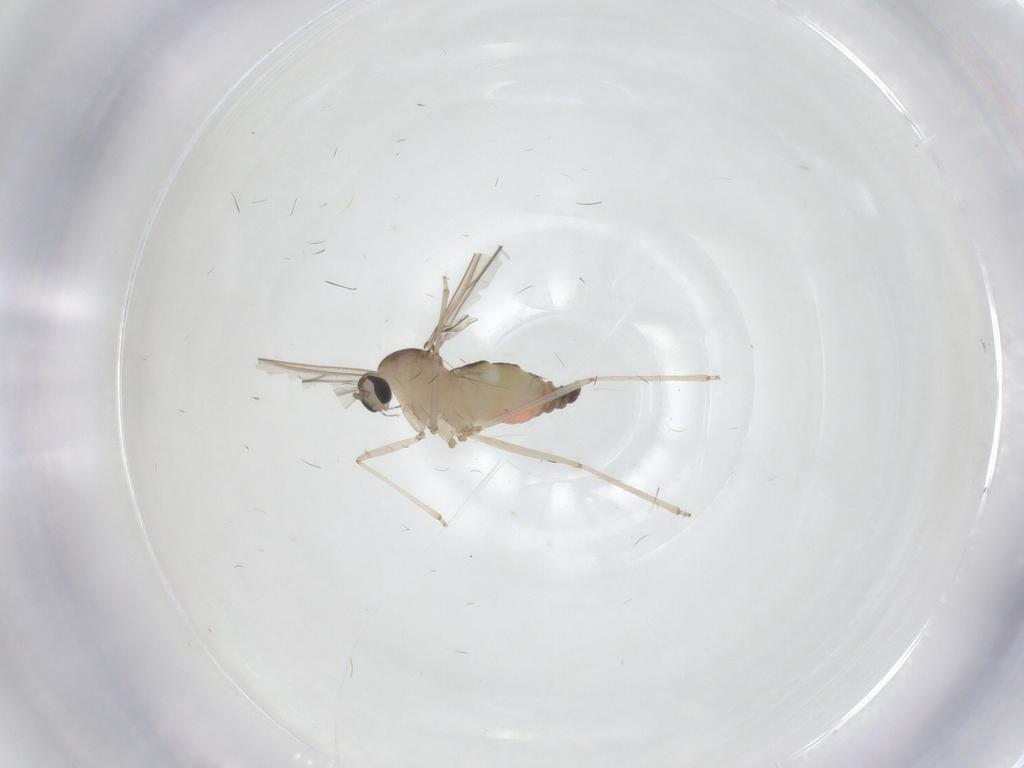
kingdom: Animalia
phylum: Arthropoda
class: Insecta
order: Diptera
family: Cecidomyiidae
